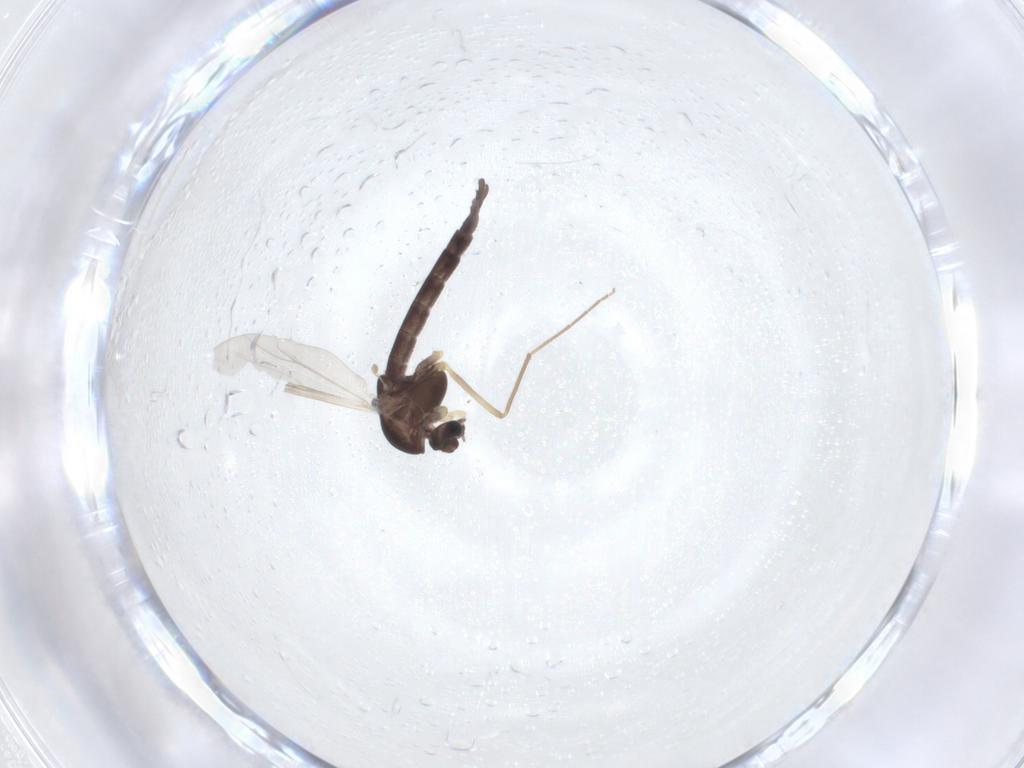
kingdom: Animalia
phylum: Arthropoda
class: Insecta
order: Diptera
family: Chironomidae
